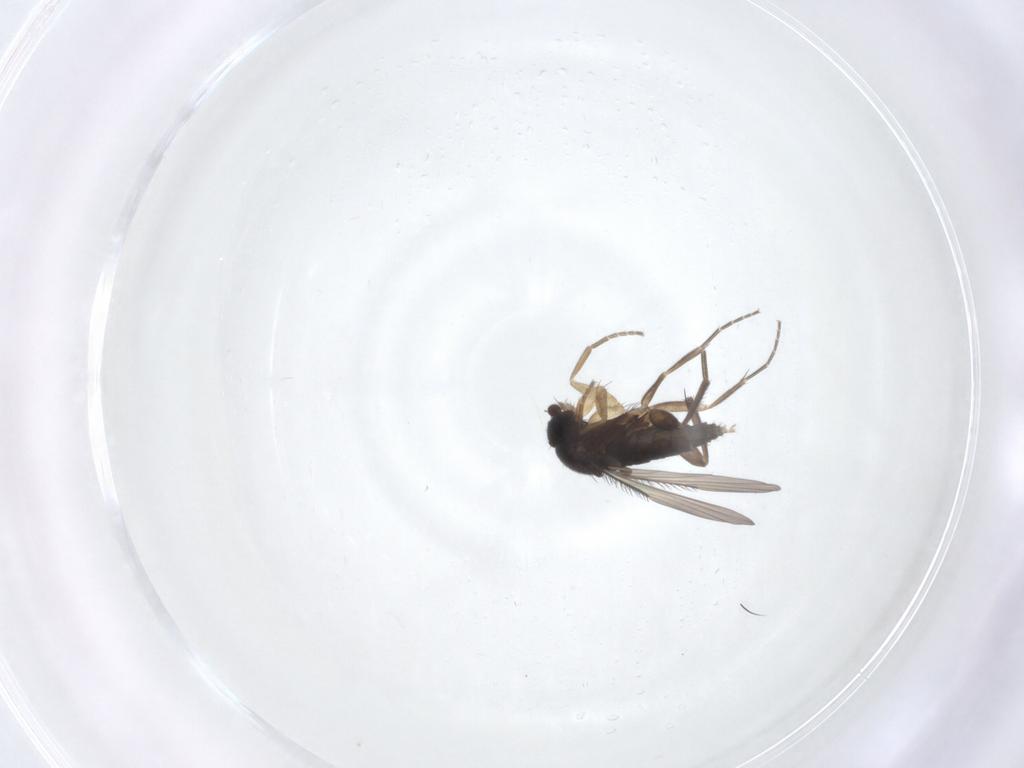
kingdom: Animalia
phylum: Arthropoda
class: Insecta
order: Diptera
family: Phoridae
